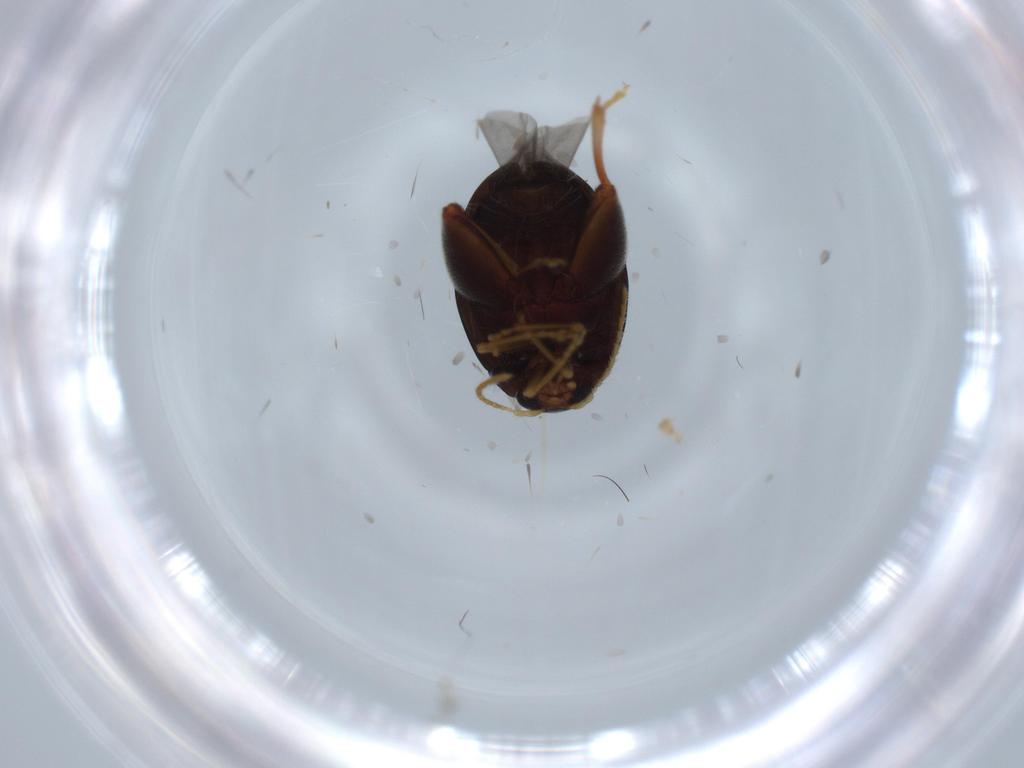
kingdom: Animalia
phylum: Arthropoda
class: Insecta
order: Coleoptera
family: Chrysomelidae
